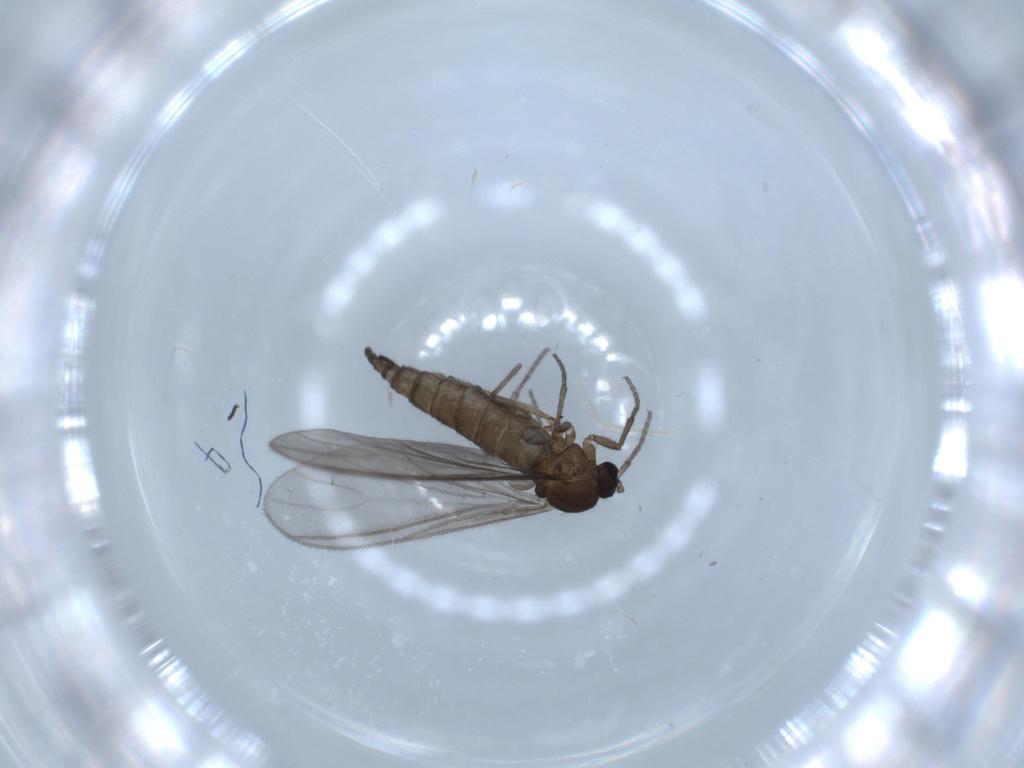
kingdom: Animalia
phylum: Arthropoda
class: Insecta
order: Diptera
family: Sciaridae
